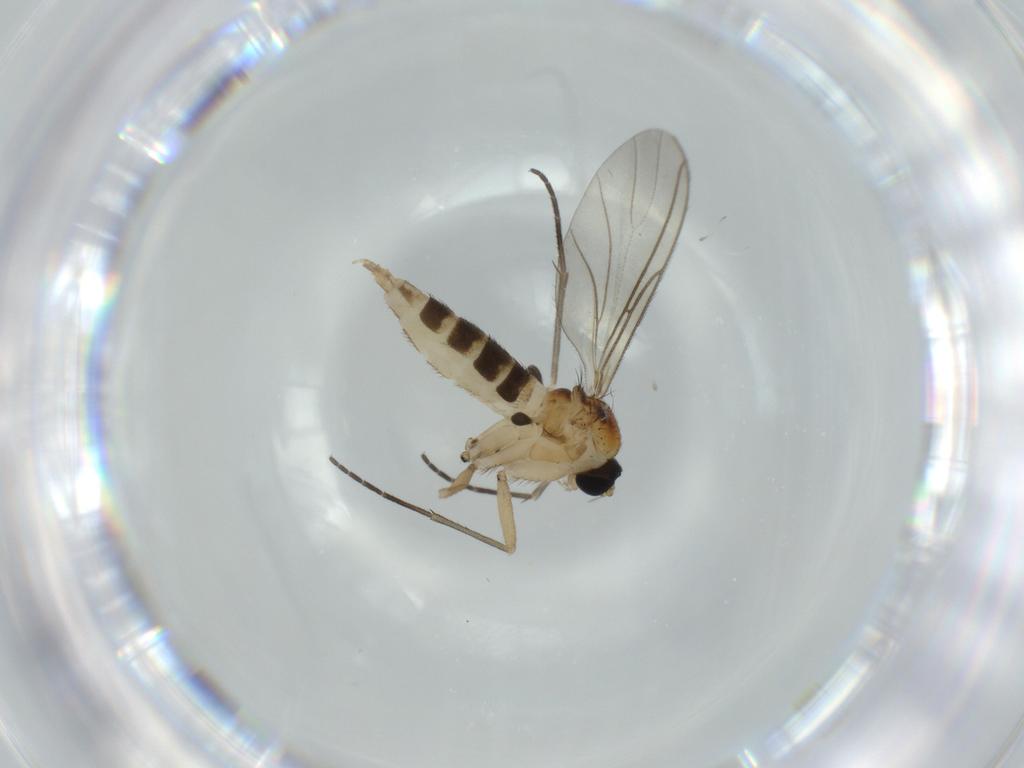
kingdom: Animalia
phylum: Arthropoda
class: Insecta
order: Diptera
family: Sciaridae
